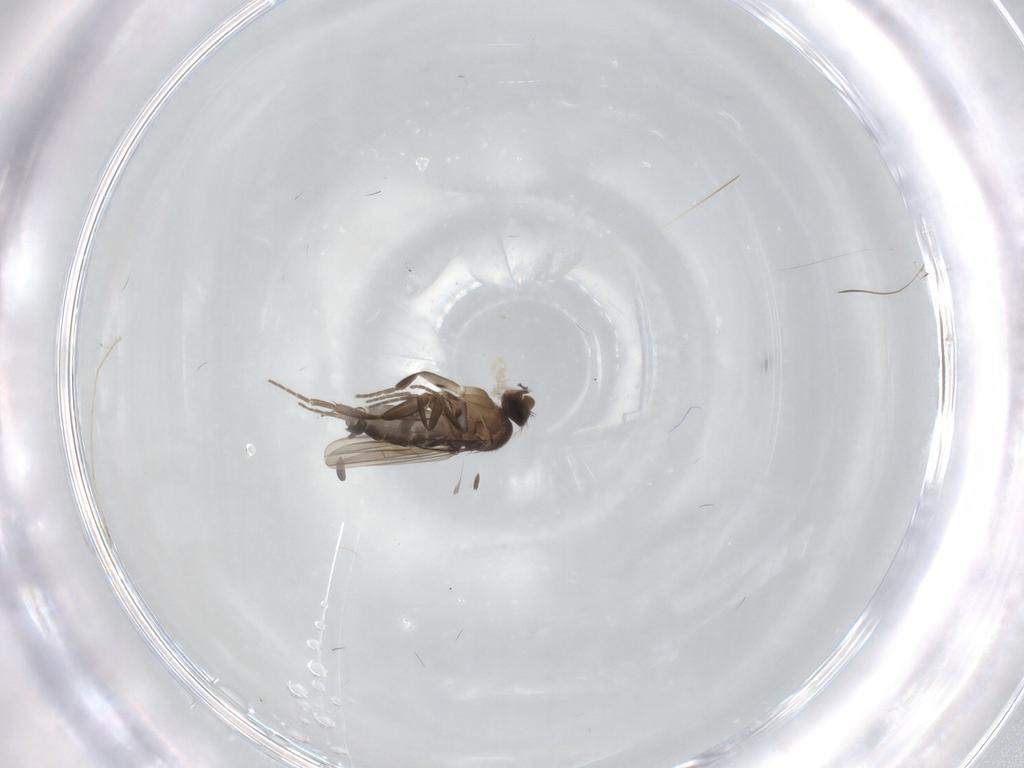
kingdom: Animalia
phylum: Arthropoda
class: Insecta
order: Diptera
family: Phoridae
